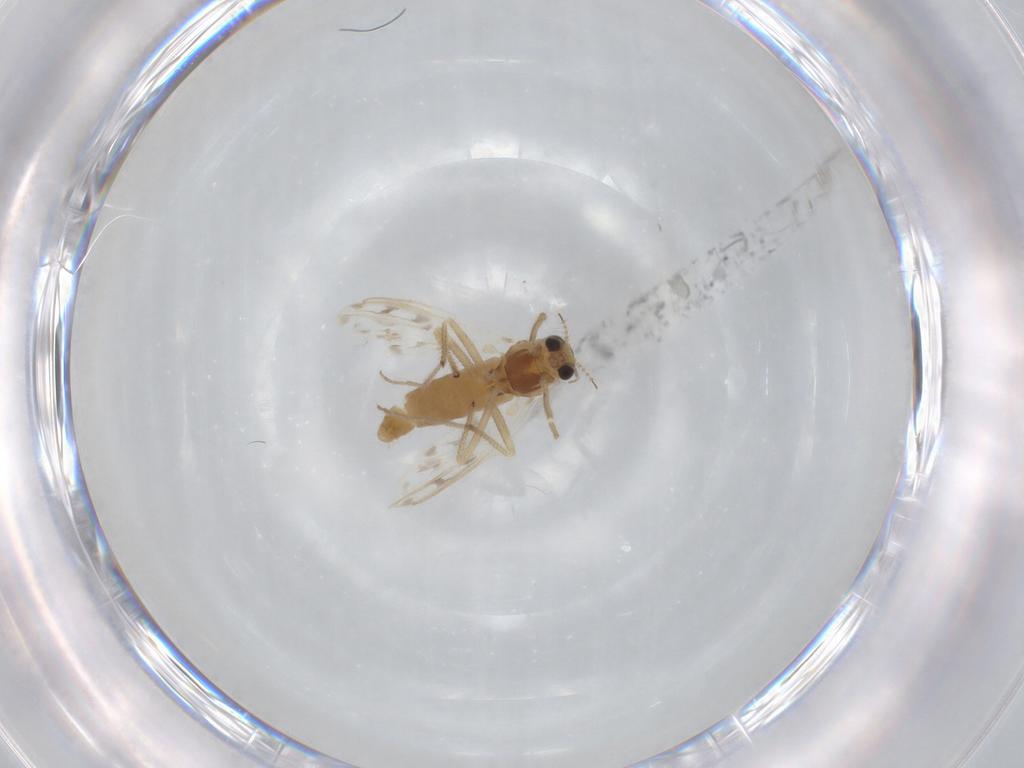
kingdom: Animalia
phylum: Arthropoda
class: Insecta
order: Diptera
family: Chironomidae
